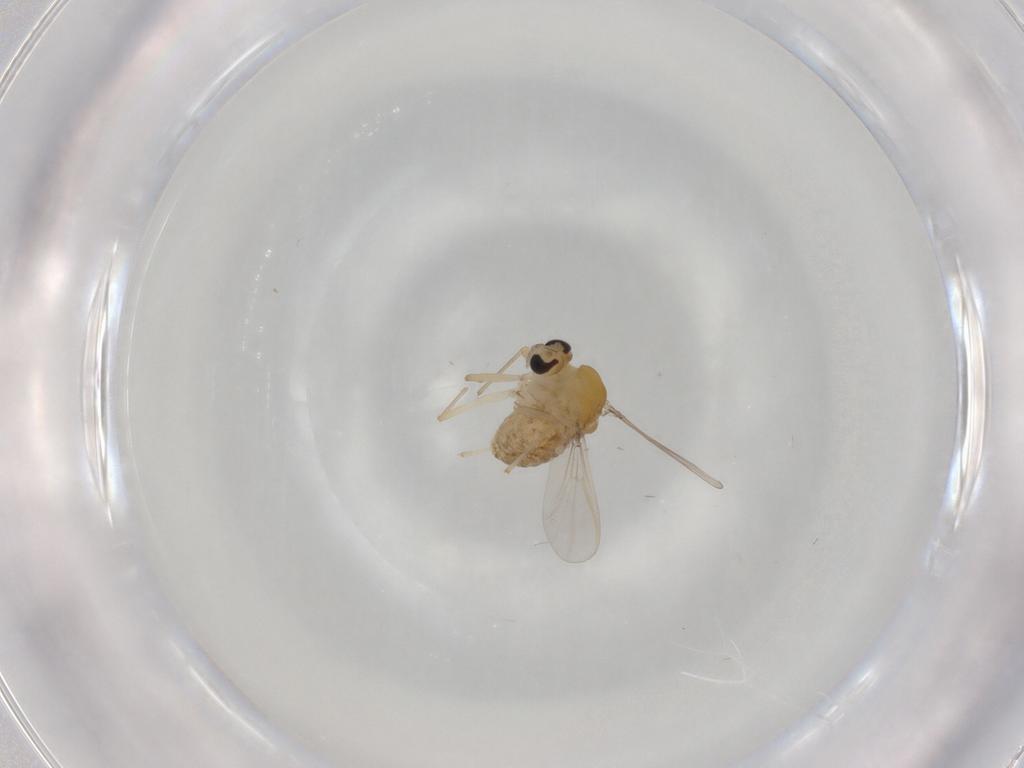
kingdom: Animalia
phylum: Arthropoda
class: Insecta
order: Diptera
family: Chironomidae
